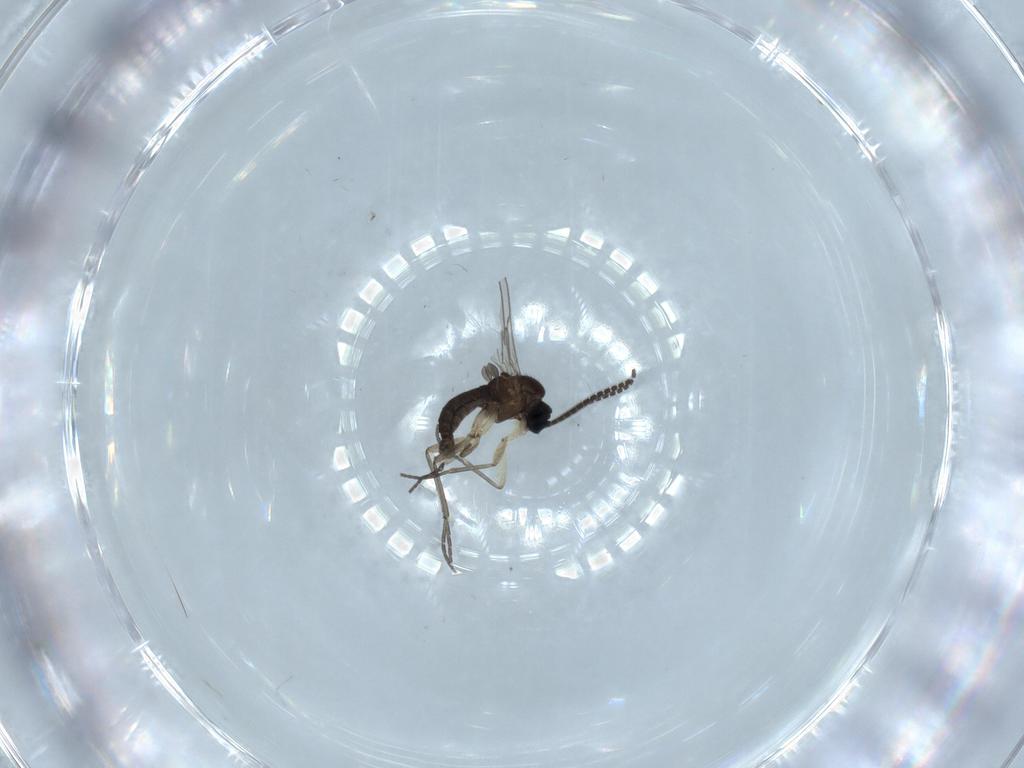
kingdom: Animalia
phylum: Arthropoda
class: Insecta
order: Diptera
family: Sciaridae
